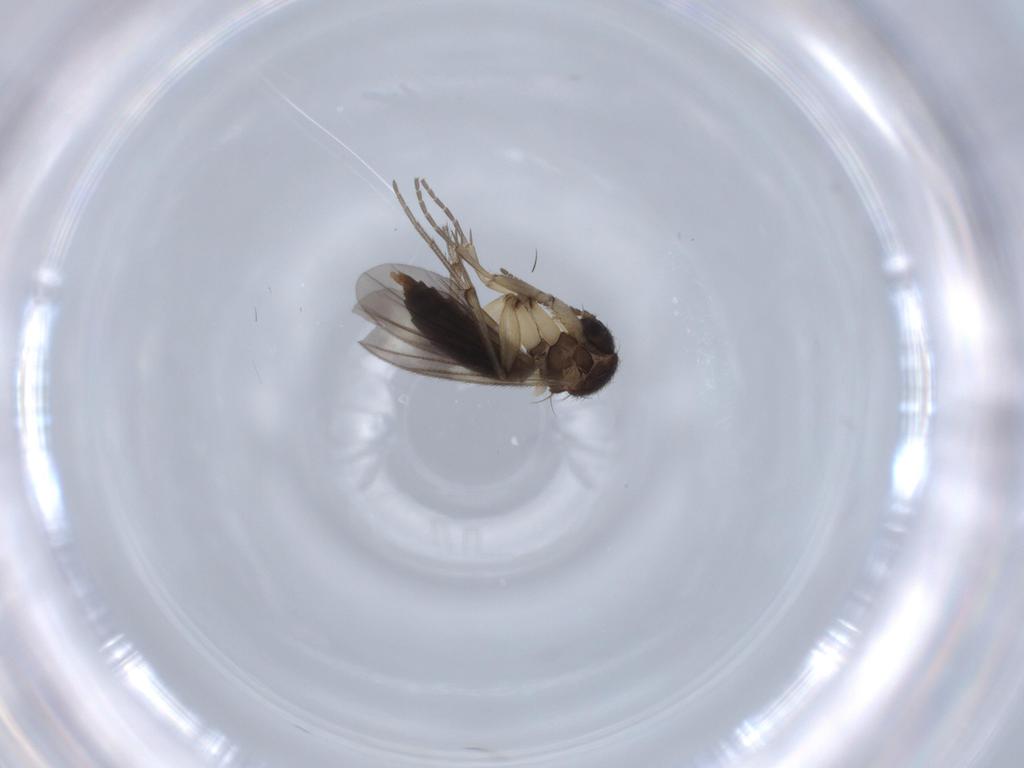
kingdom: Animalia
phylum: Arthropoda
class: Insecta
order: Diptera
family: Mycetophilidae
